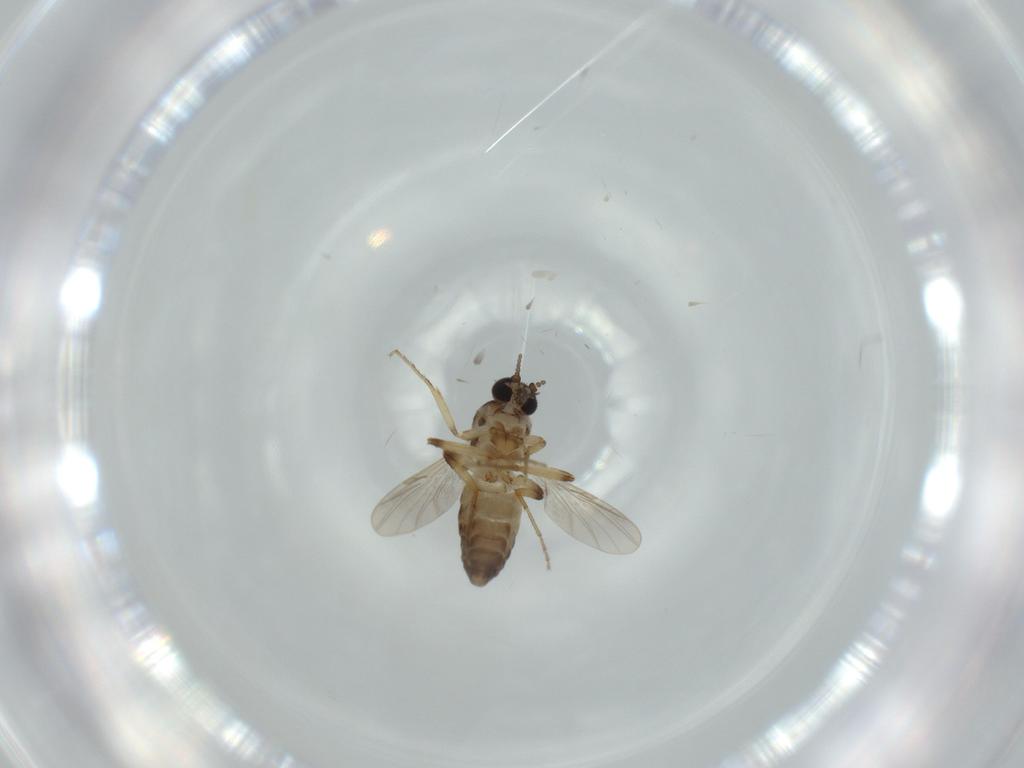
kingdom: Animalia
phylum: Arthropoda
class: Insecta
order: Diptera
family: Ceratopogonidae
